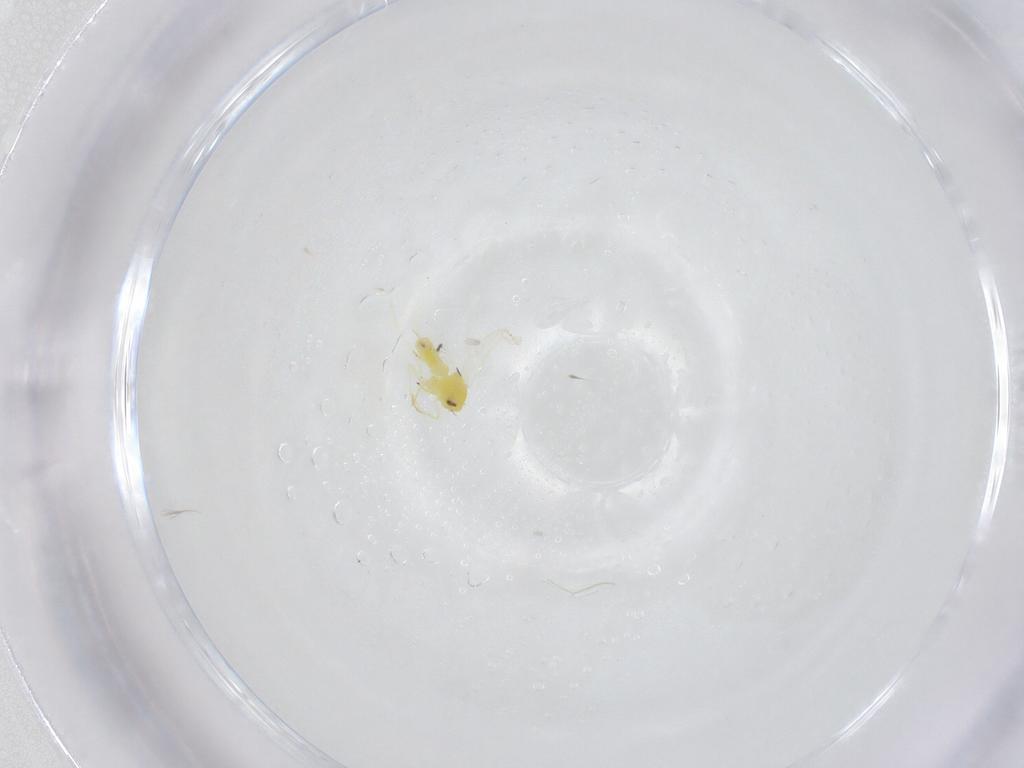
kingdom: Animalia
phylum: Arthropoda
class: Insecta
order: Hemiptera
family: Aleyrodidae
